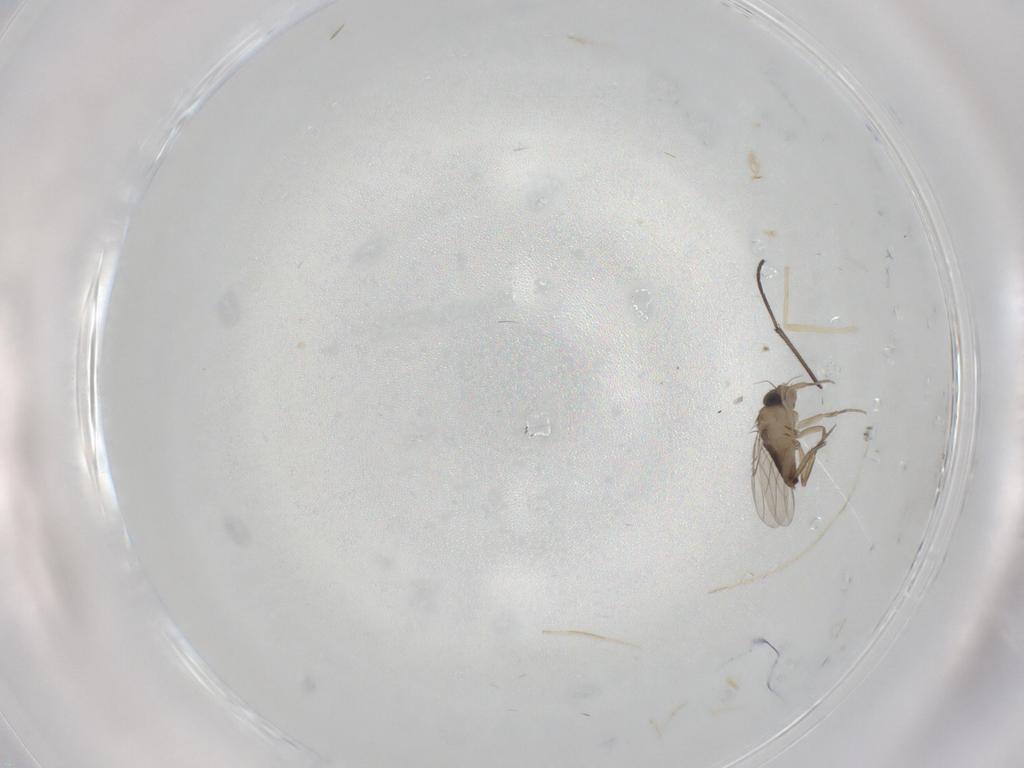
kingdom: Animalia
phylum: Arthropoda
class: Insecta
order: Diptera
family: Phoridae
